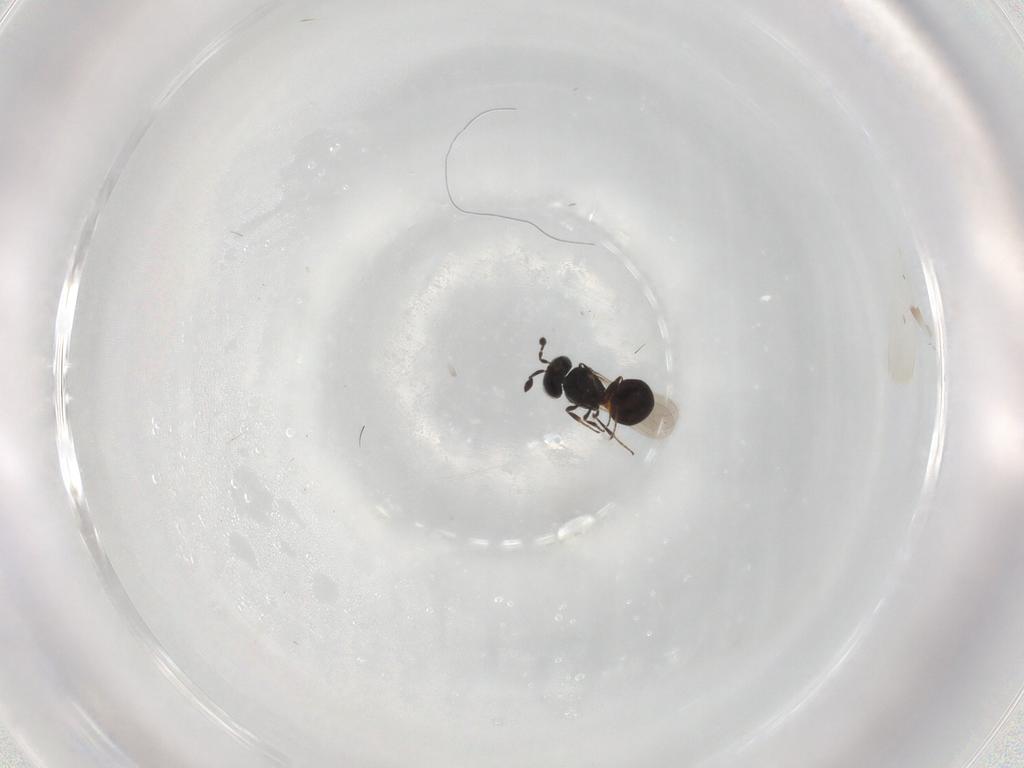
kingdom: Animalia
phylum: Arthropoda
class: Insecta
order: Hymenoptera
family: Scelionidae
